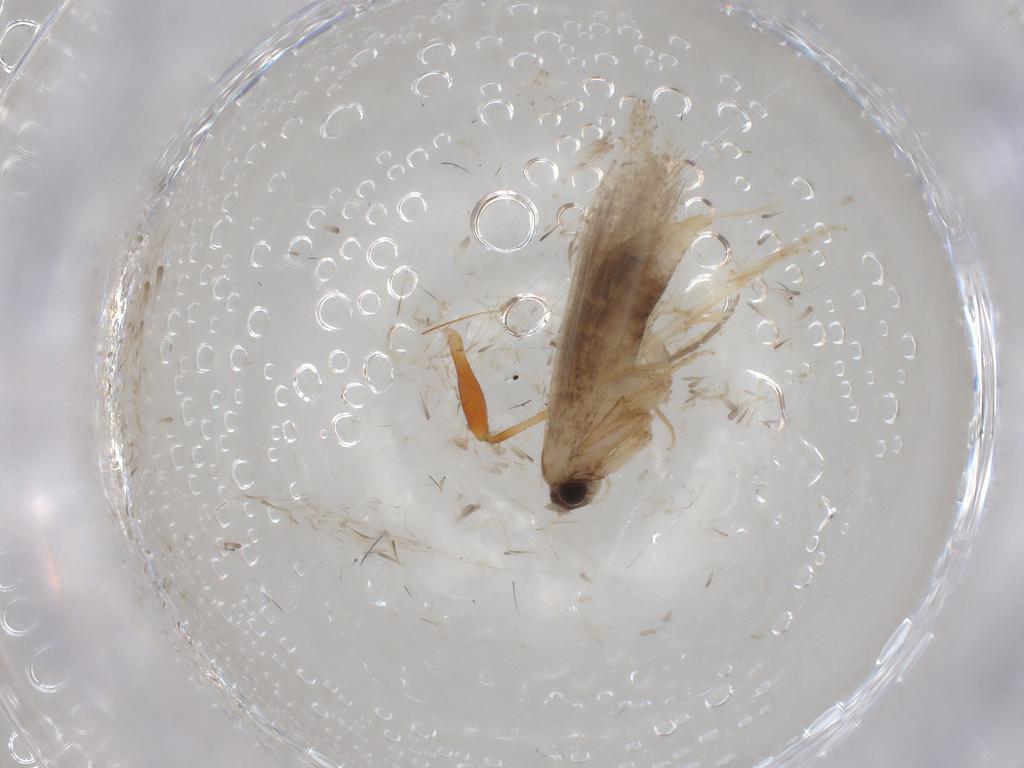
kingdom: Animalia
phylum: Arthropoda
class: Insecta
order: Lepidoptera
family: Nepticulidae
